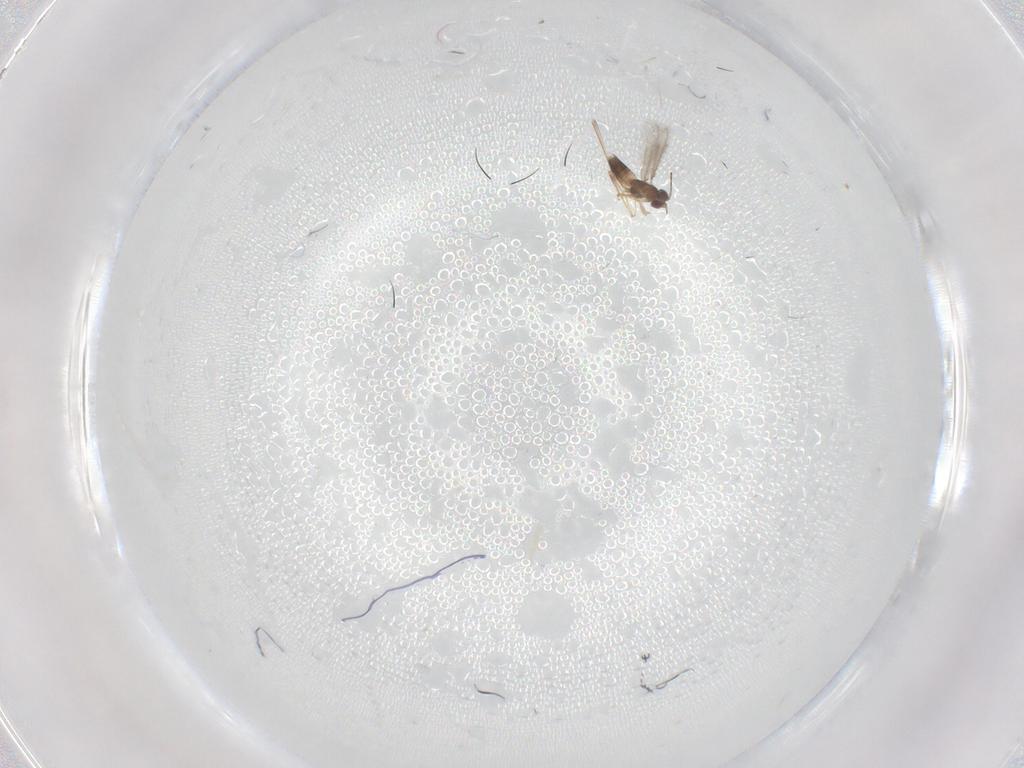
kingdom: Animalia
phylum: Arthropoda
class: Insecta
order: Hymenoptera
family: Mymaridae
